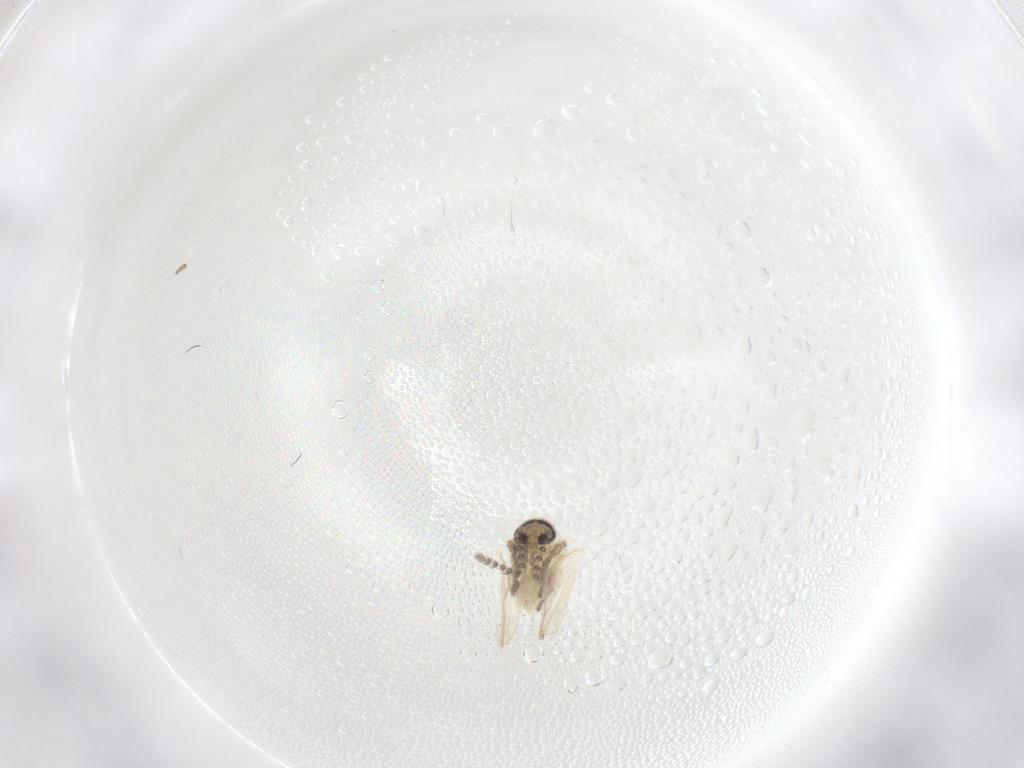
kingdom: Animalia
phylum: Arthropoda
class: Insecta
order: Diptera
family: Psychodidae
